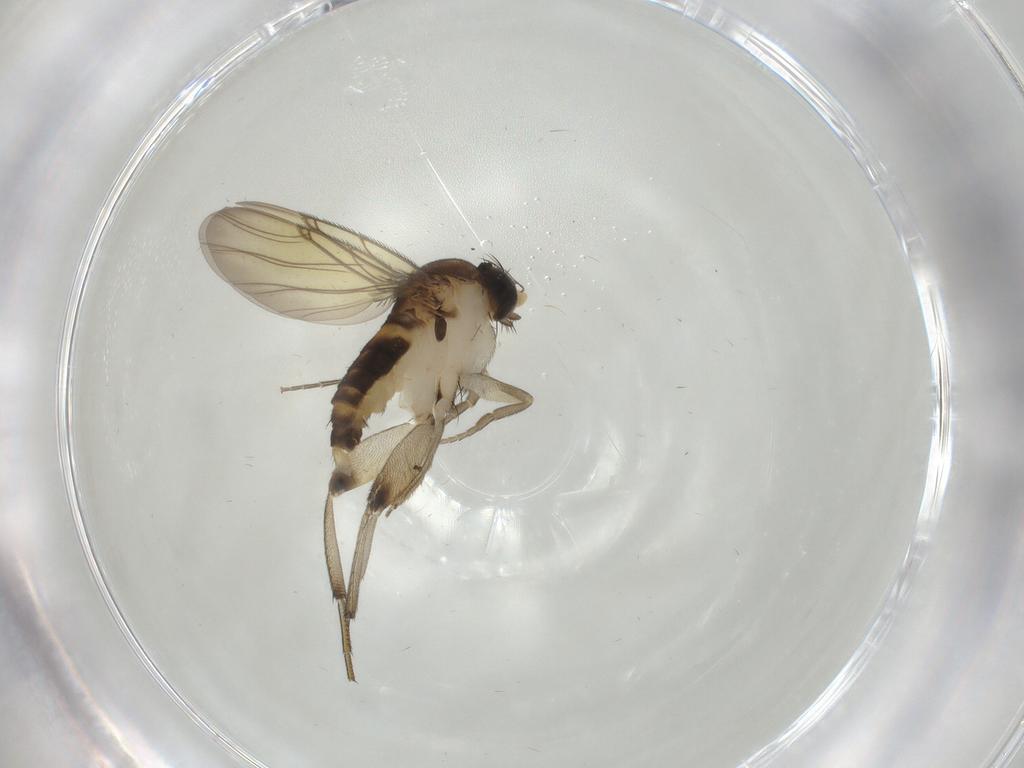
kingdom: Animalia
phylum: Arthropoda
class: Insecta
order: Diptera
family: Phoridae
